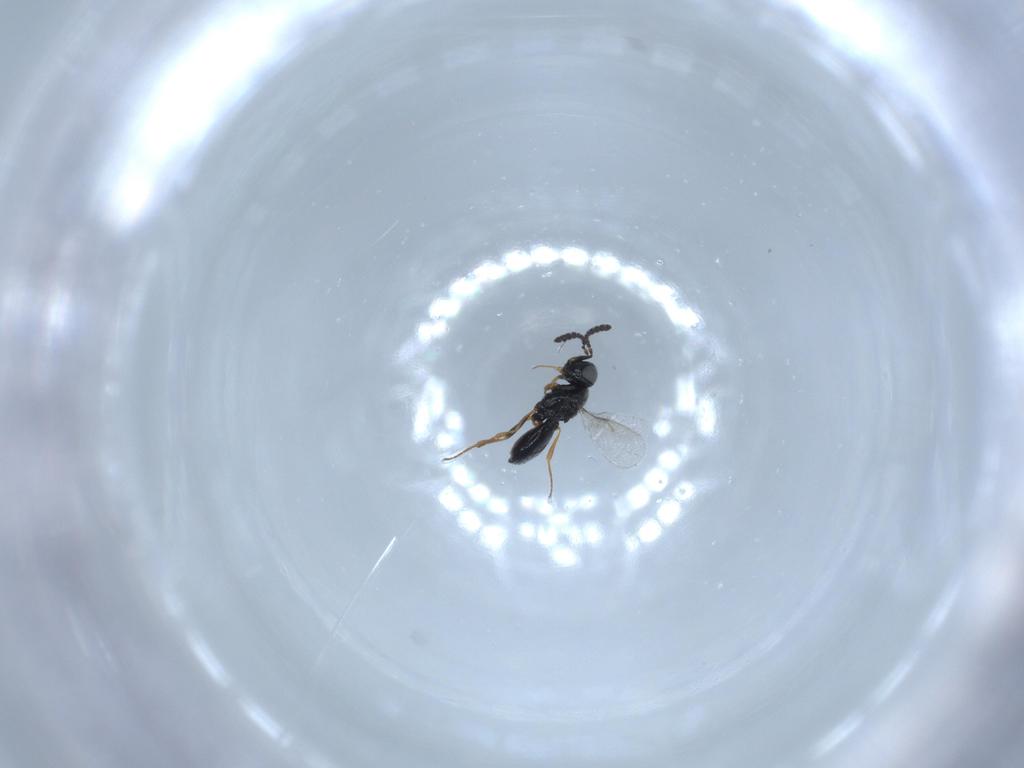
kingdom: Animalia
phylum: Arthropoda
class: Insecta
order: Hymenoptera
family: Scelionidae
